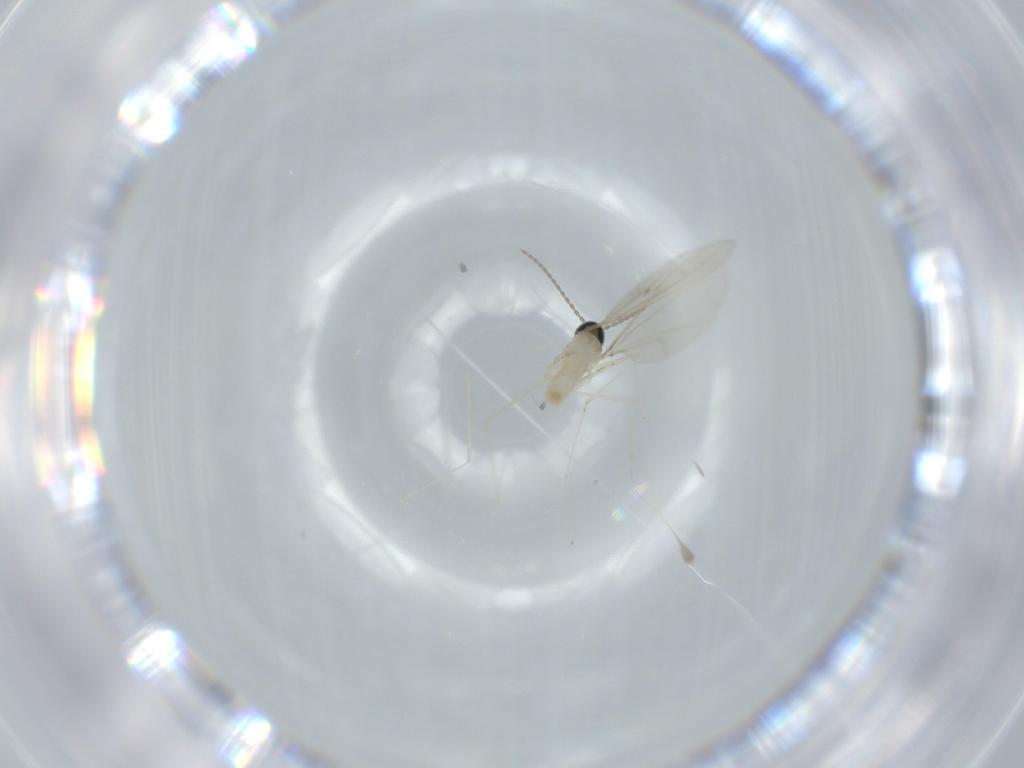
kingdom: Animalia
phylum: Arthropoda
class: Insecta
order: Diptera
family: Cecidomyiidae
